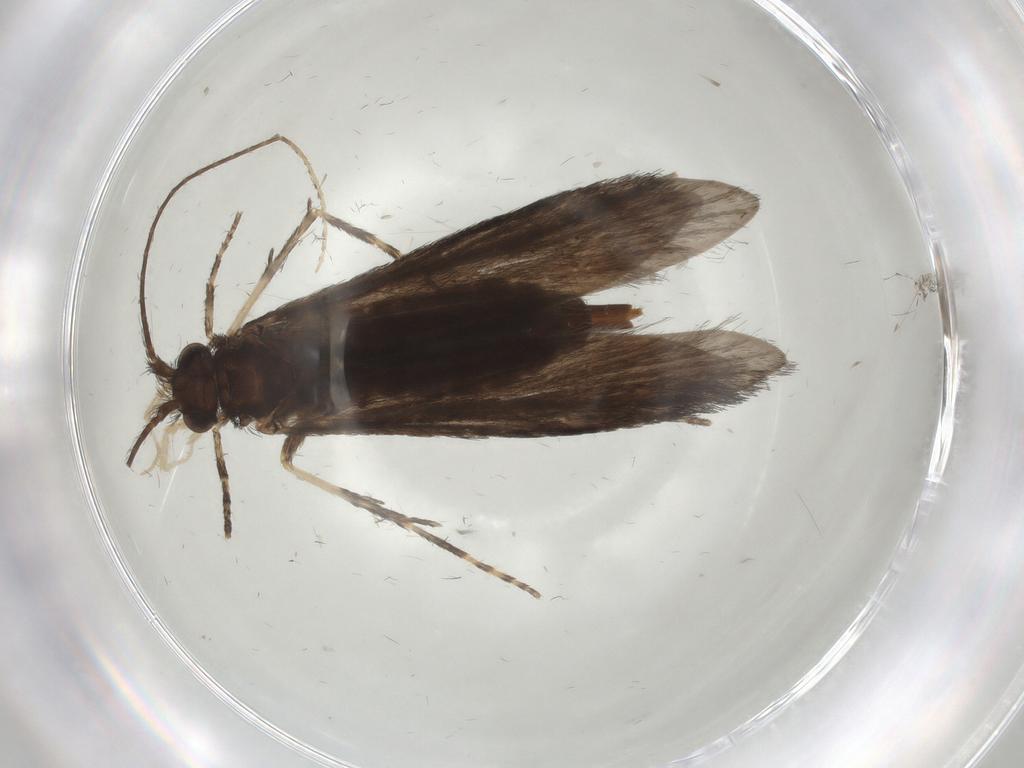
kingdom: Animalia
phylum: Arthropoda
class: Insecta
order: Trichoptera
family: Xiphocentronidae
